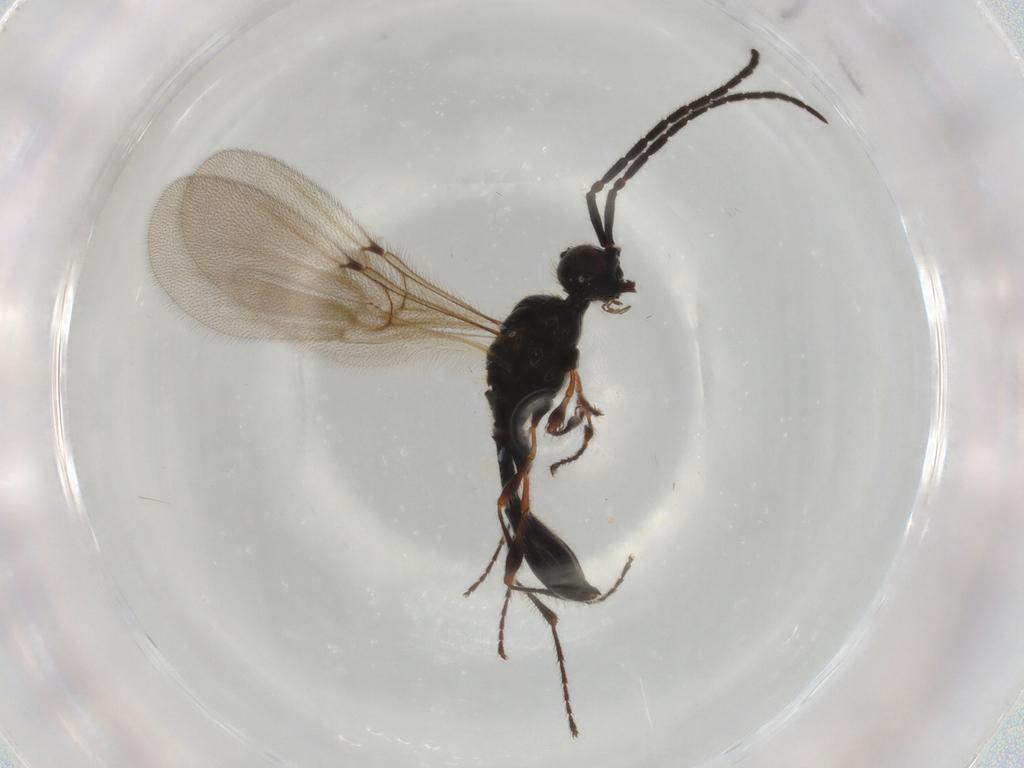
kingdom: Animalia
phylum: Arthropoda
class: Insecta
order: Hymenoptera
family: Diapriidae
